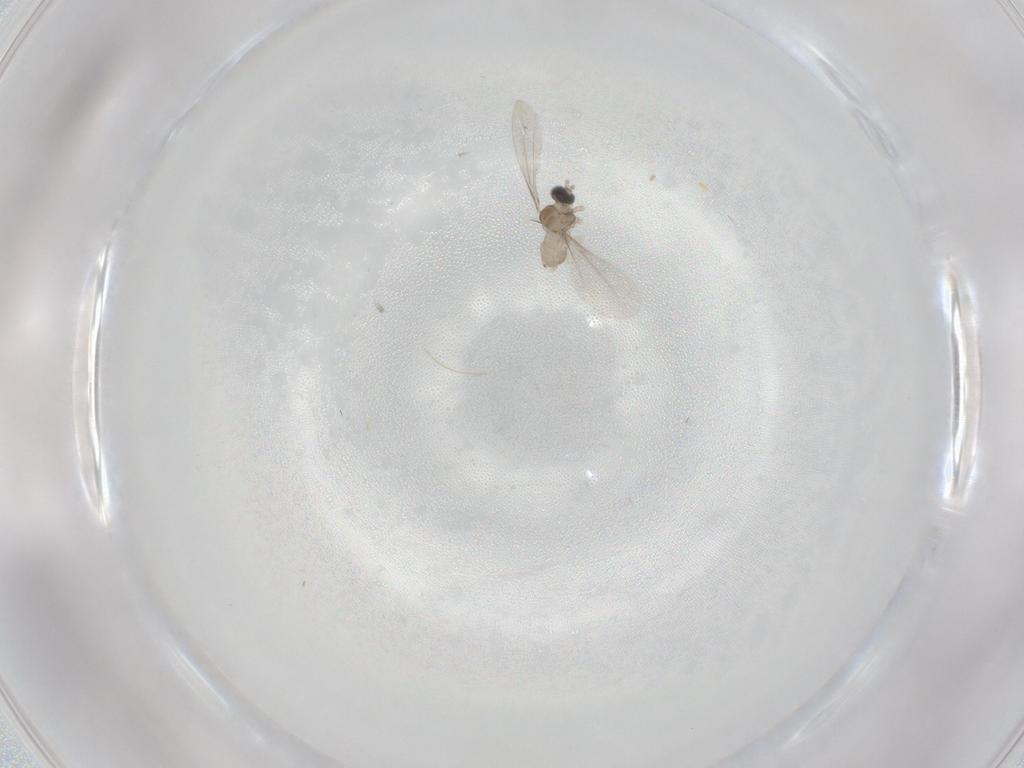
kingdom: Animalia
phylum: Arthropoda
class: Insecta
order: Diptera
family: Cecidomyiidae
